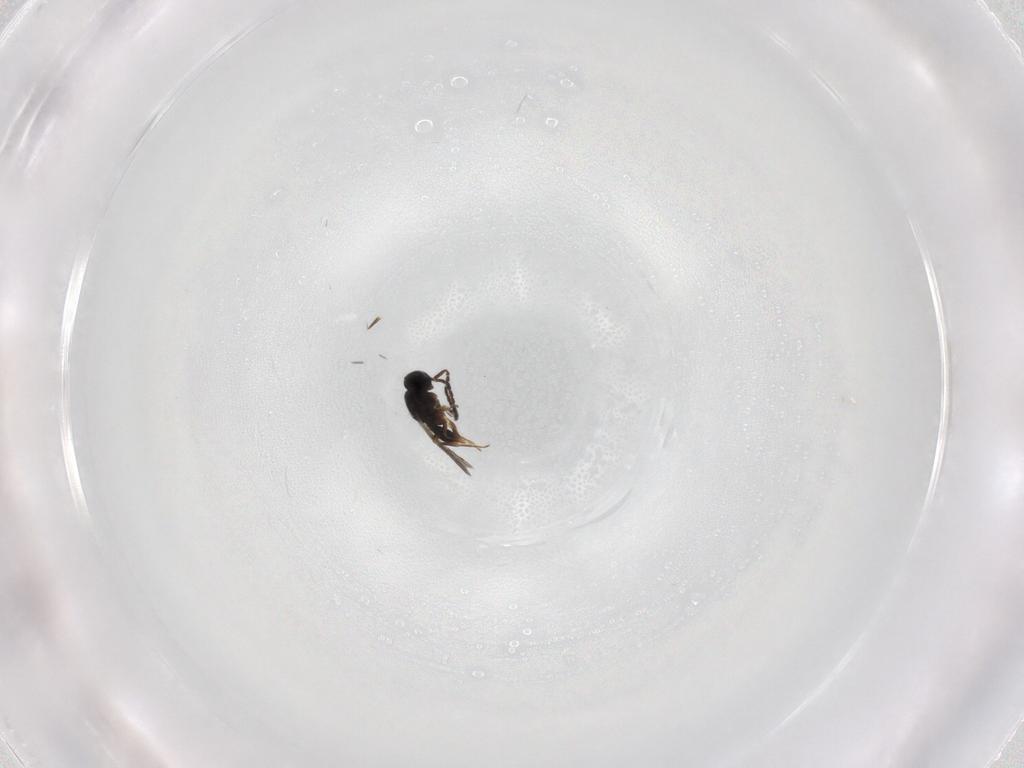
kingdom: Animalia
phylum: Arthropoda
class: Insecta
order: Hymenoptera
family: Scelionidae
